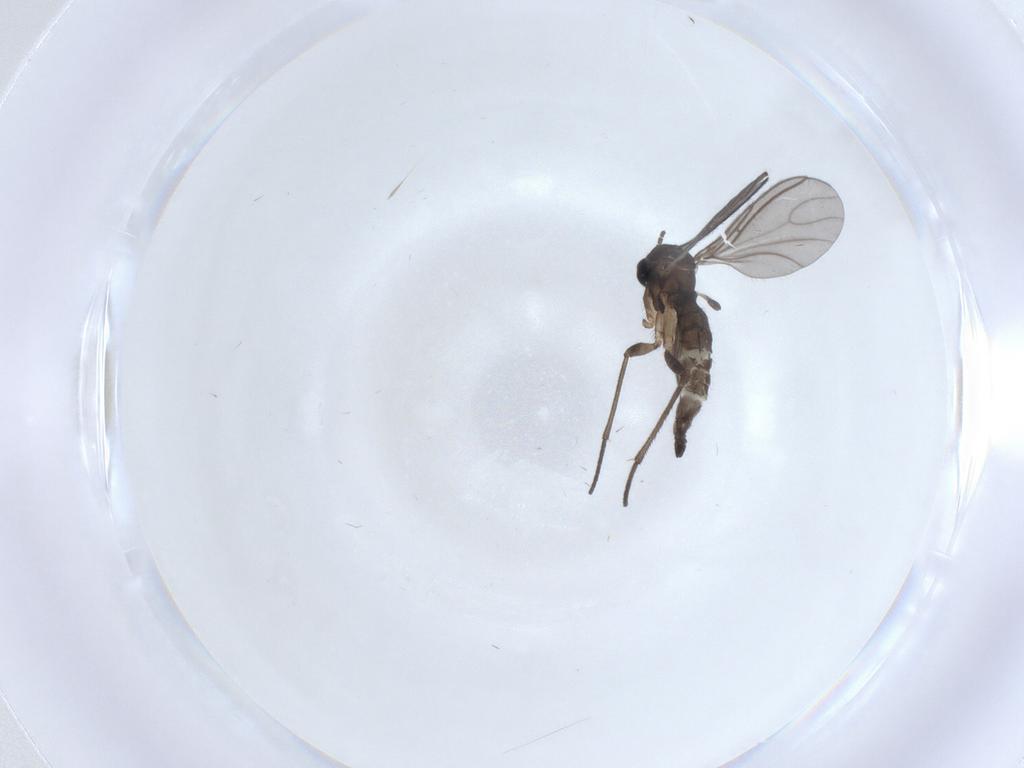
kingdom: Animalia
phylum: Arthropoda
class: Insecta
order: Diptera
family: Sciaridae
